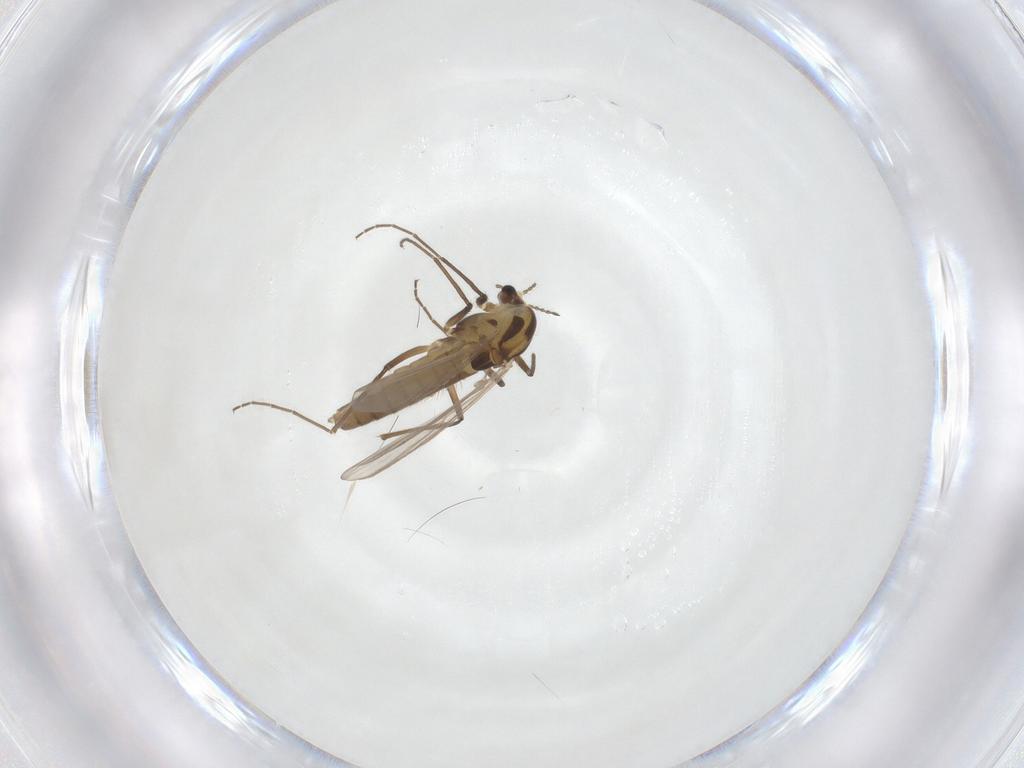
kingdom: Animalia
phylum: Arthropoda
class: Insecta
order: Diptera
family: Chironomidae
